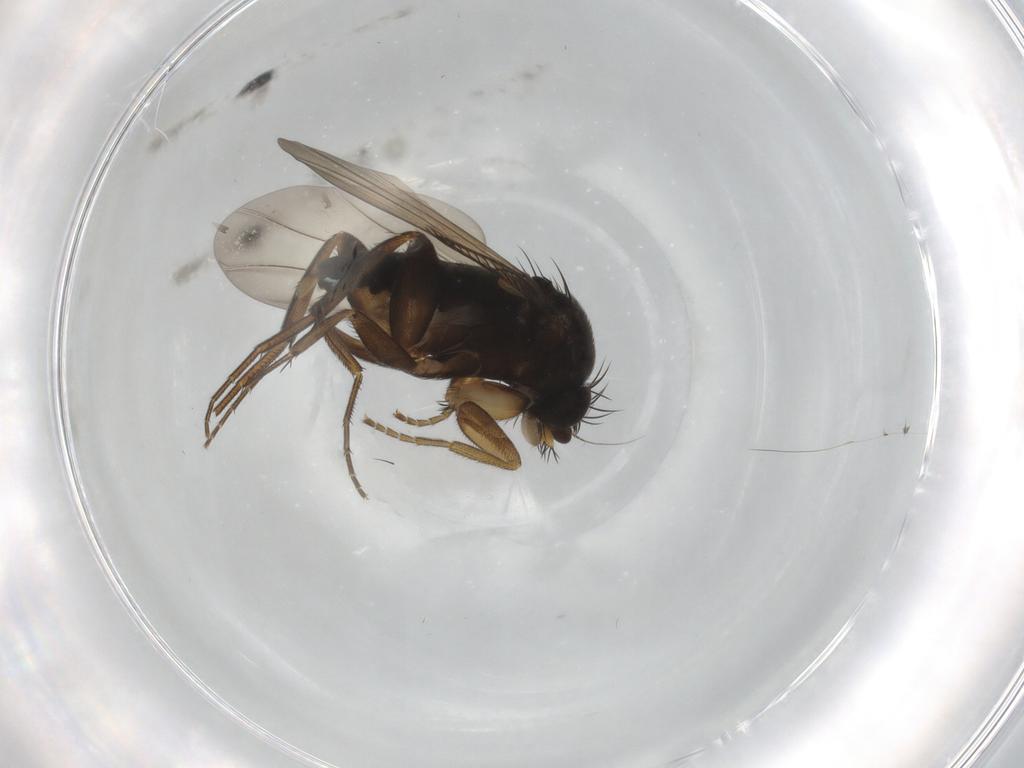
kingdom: Animalia
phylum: Arthropoda
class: Insecta
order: Diptera
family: Phoridae
